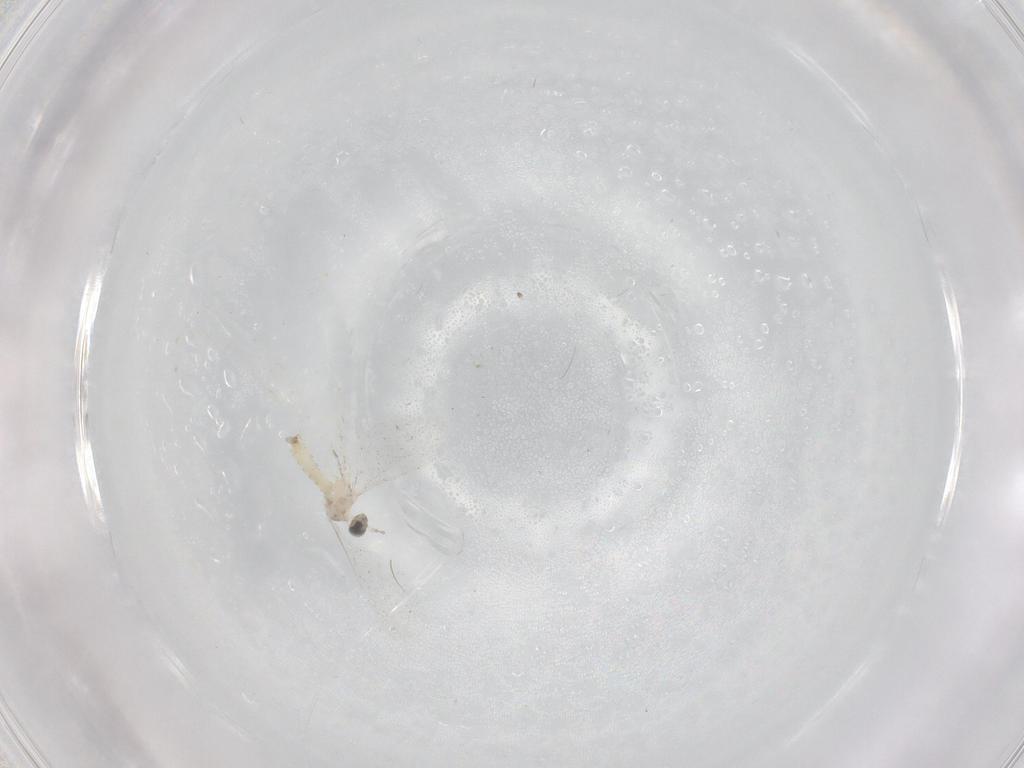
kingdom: Animalia
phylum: Arthropoda
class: Insecta
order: Diptera
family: Cecidomyiidae
